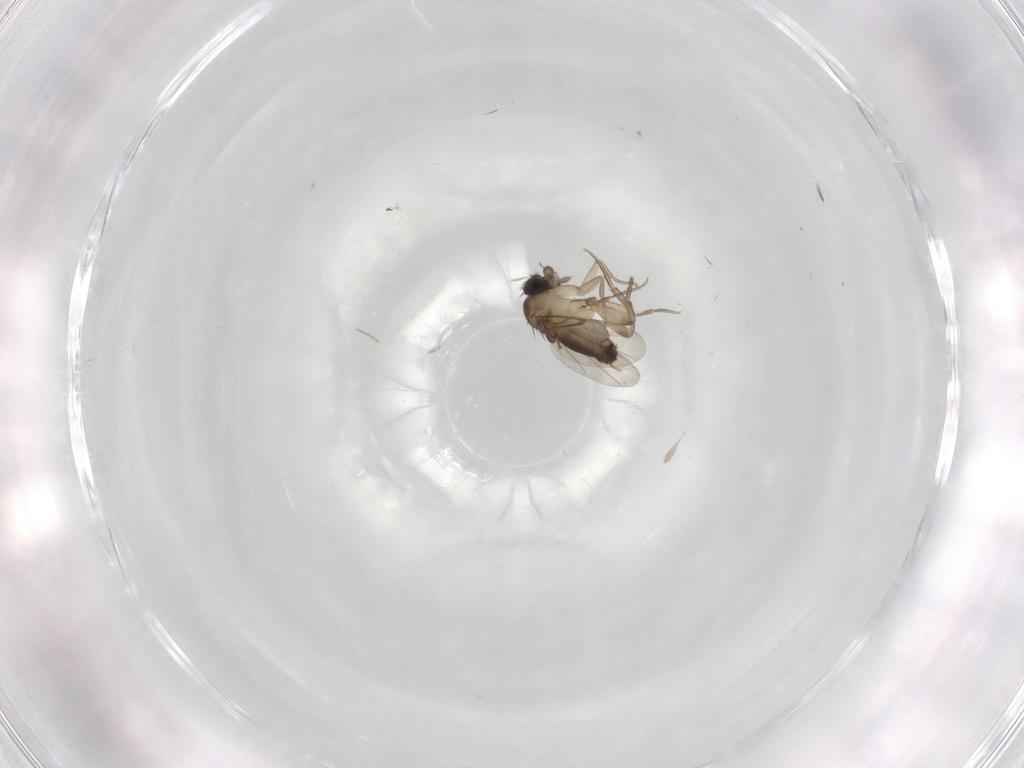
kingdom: Animalia
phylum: Arthropoda
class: Insecta
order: Diptera
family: Phoridae
